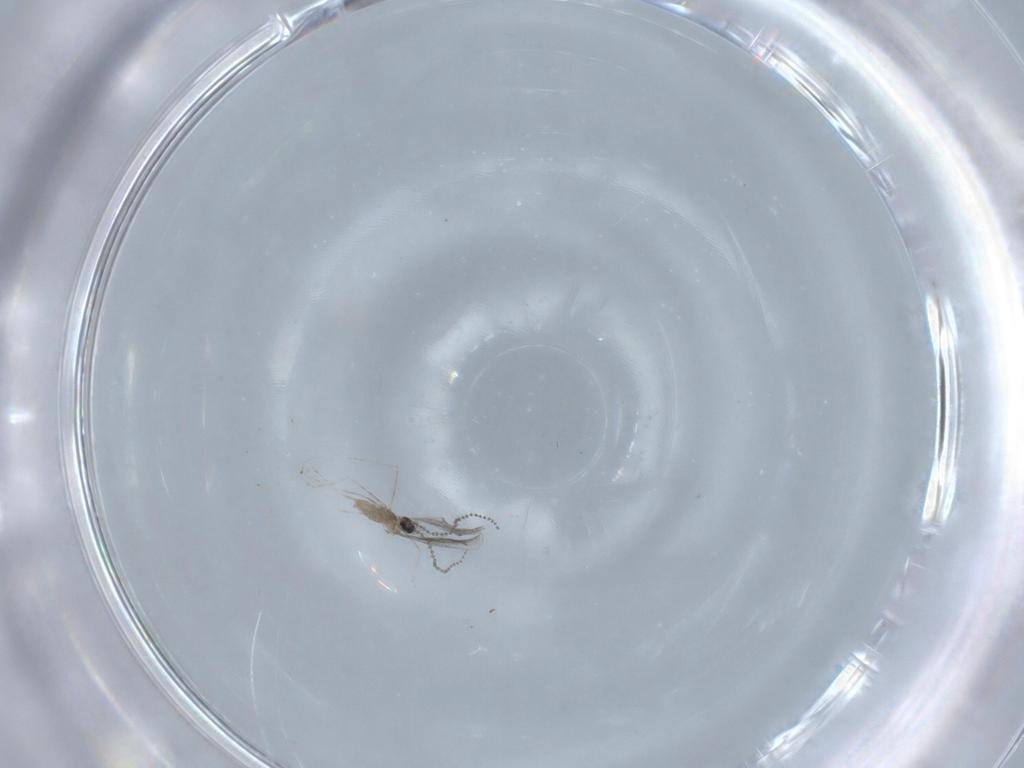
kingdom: Animalia
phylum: Arthropoda
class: Insecta
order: Diptera
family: Cecidomyiidae
